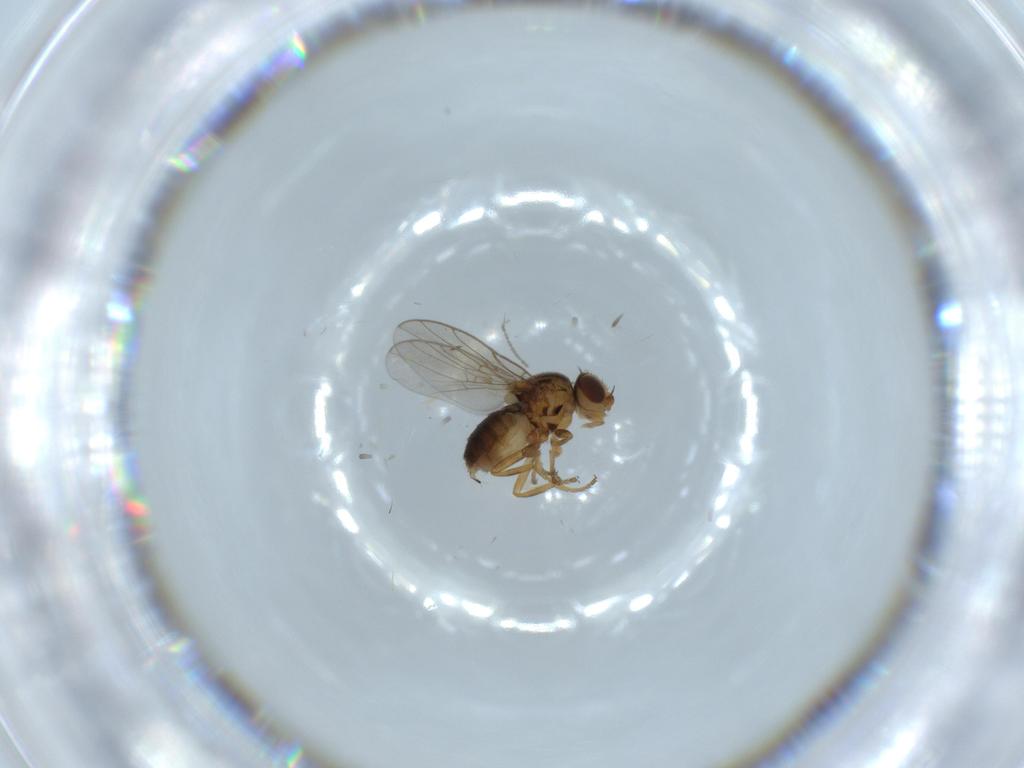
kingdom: Animalia
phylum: Arthropoda
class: Insecta
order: Diptera
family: Chloropidae
